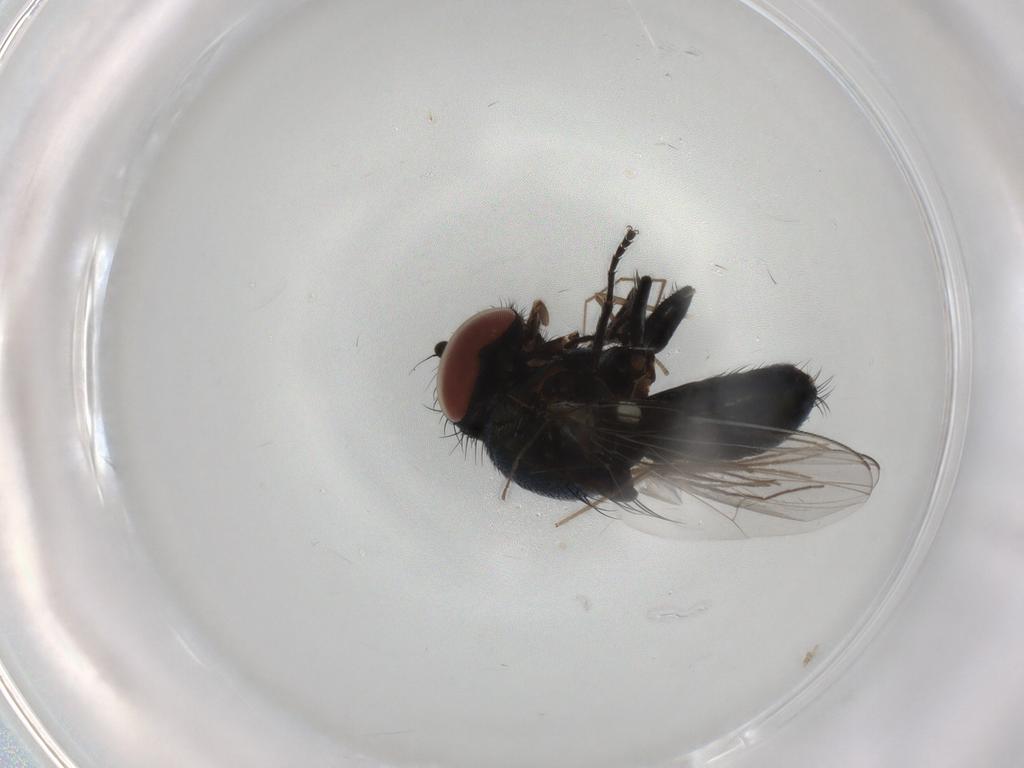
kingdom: Animalia
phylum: Arthropoda
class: Insecta
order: Diptera
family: Milichiidae
